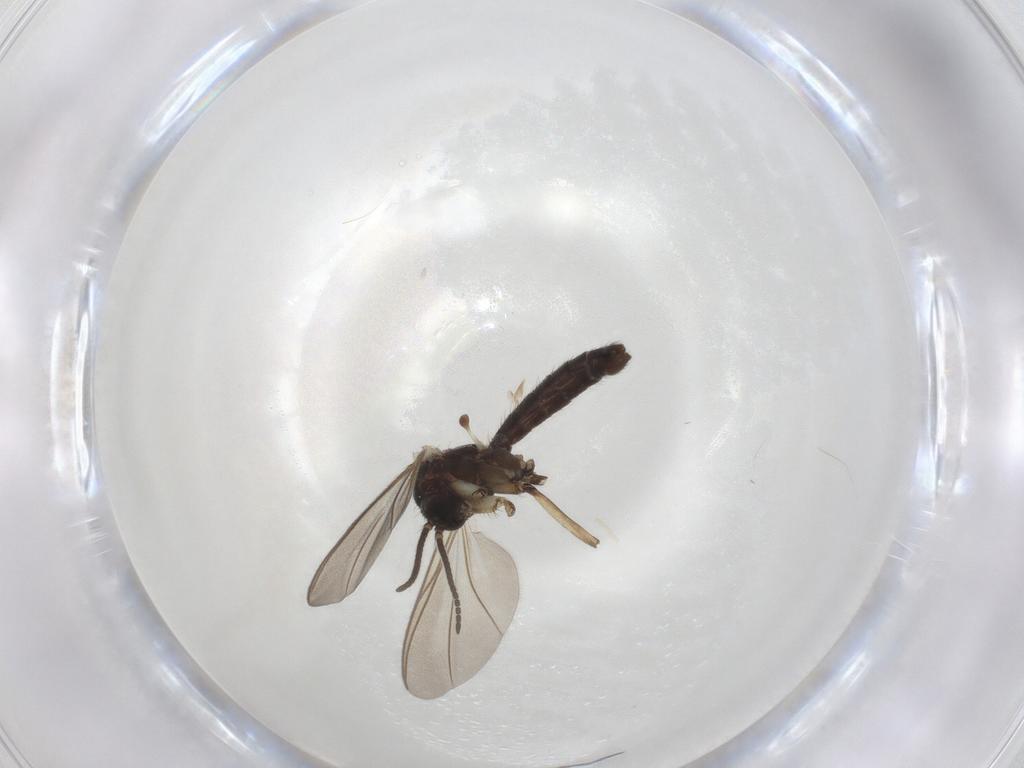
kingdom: Animalia
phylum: Arthropoda
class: Insecta
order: Diptera
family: Mycetophilidae
